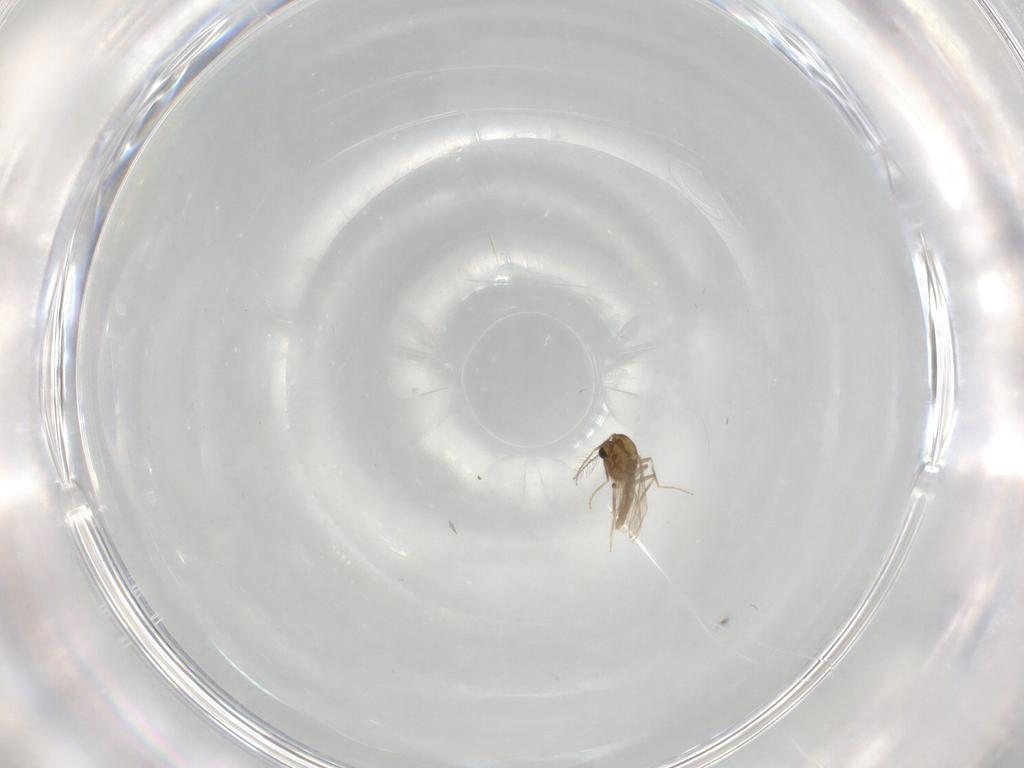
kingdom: Animalia
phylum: Arthropoda
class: Insecta
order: Diptera
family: Chironomidae
